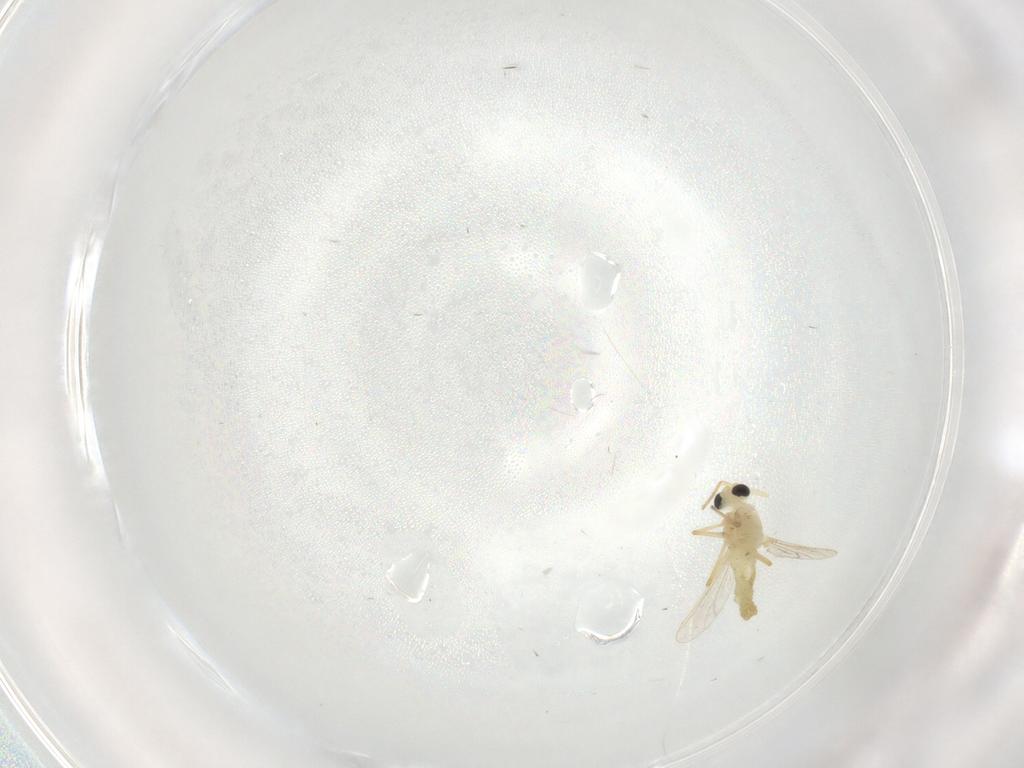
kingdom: Animalia
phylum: Arthropoda
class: Insecta
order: Diptera
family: Chironomidae
